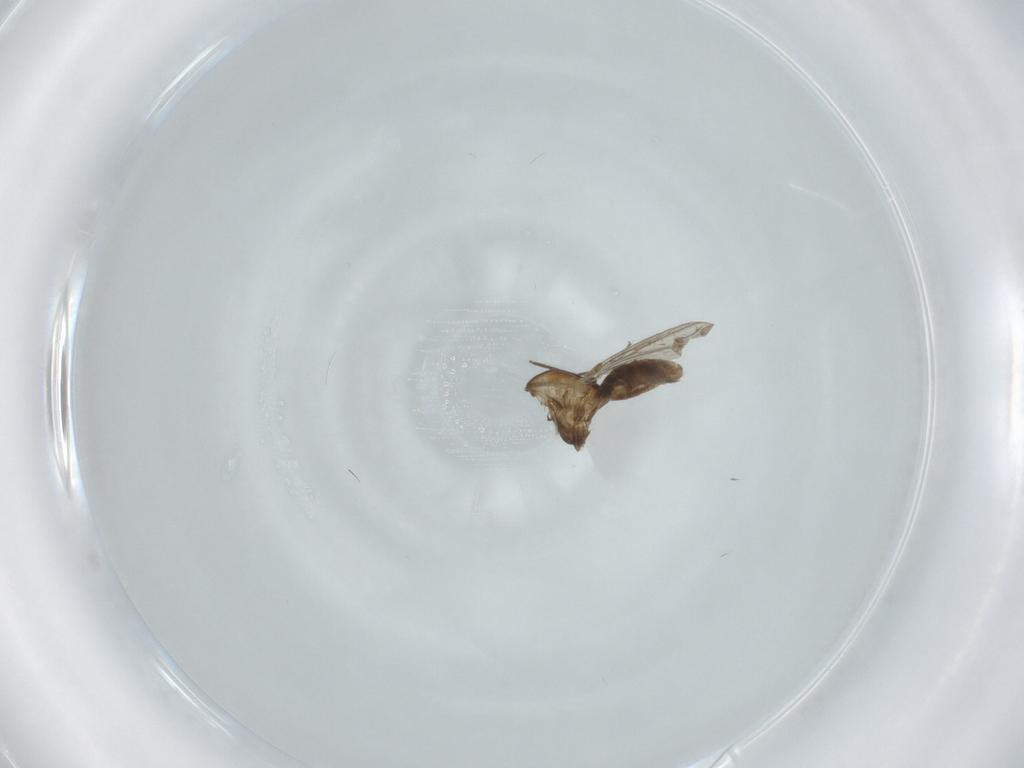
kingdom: Animalia
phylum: Arthropoda
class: Insecta
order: Diptera
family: Chironomidae
